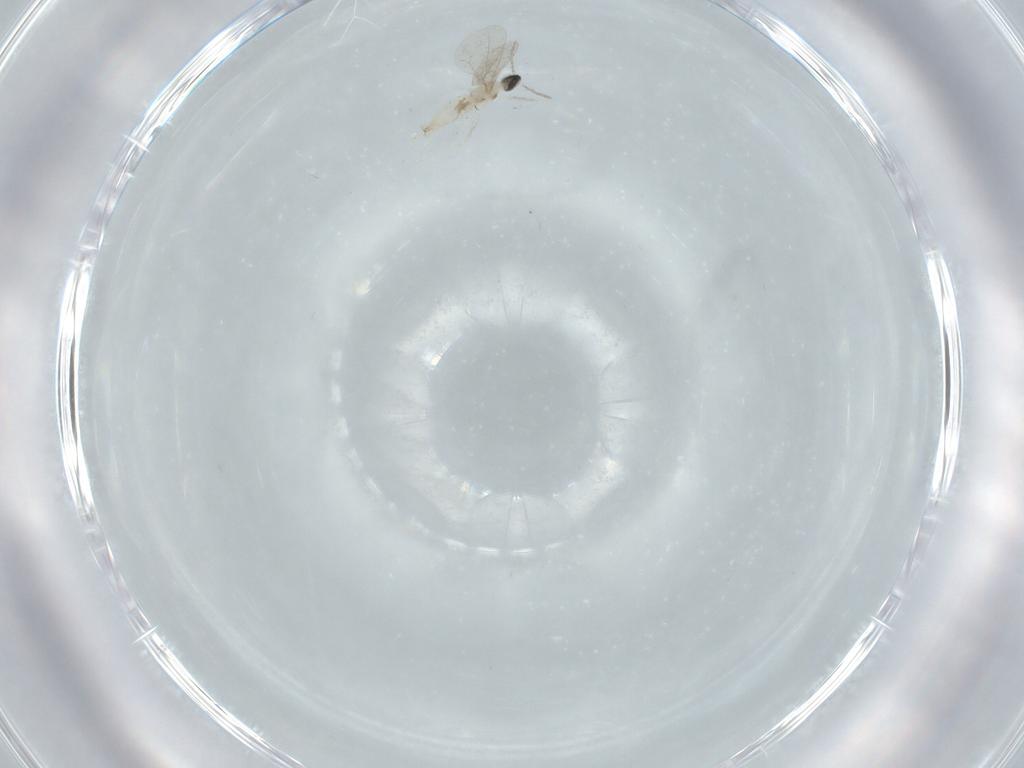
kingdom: Animalia
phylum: Arthropoda
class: Insecta
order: Diptera
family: Cecidomyiidae
